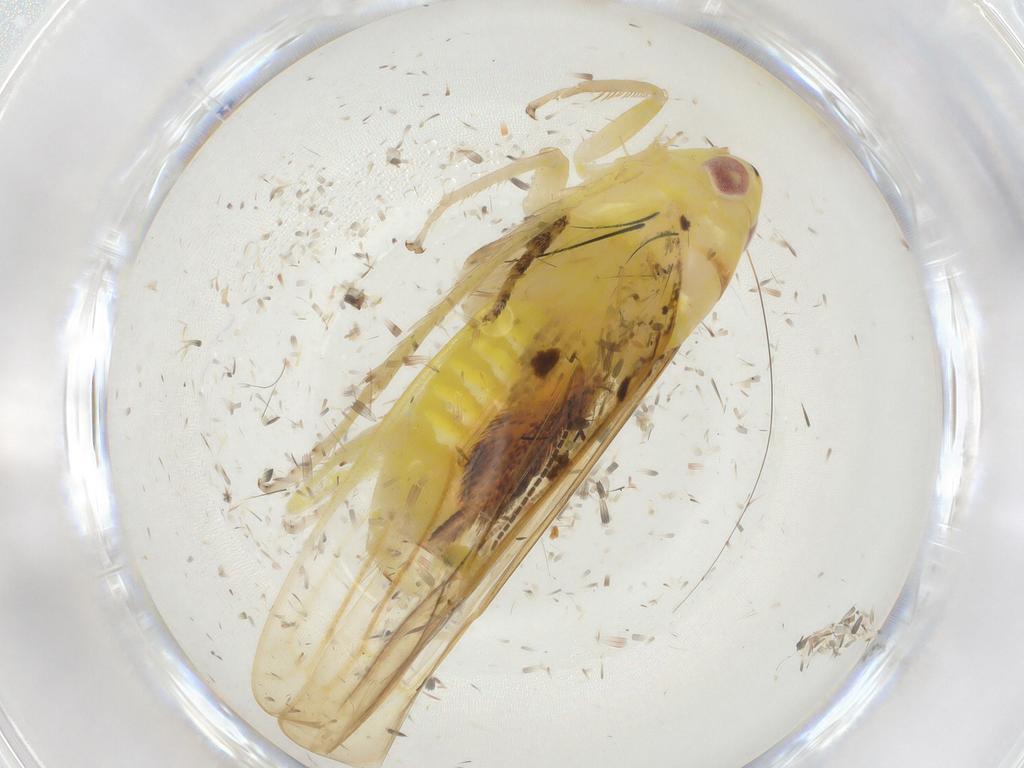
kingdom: Animalia
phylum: Arthropoda
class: Insecta
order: Hemiptera
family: Cicadellidae
